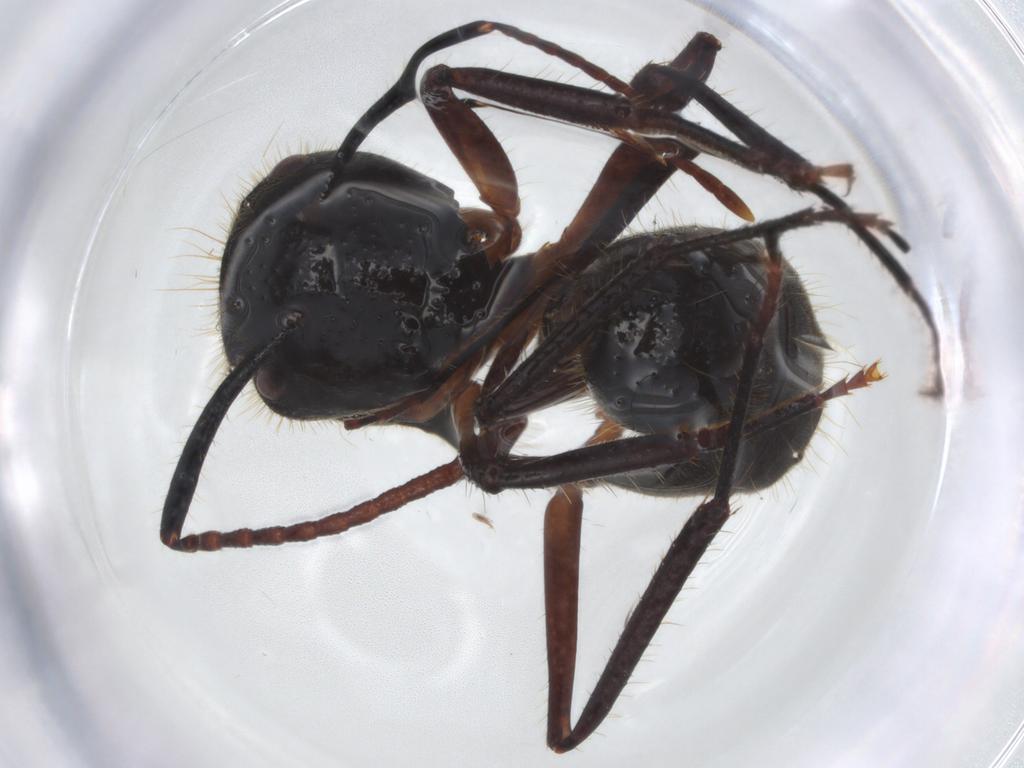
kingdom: Animalia
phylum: Arthropoda
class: Insecta
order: Hymenoptera
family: Formicidae
